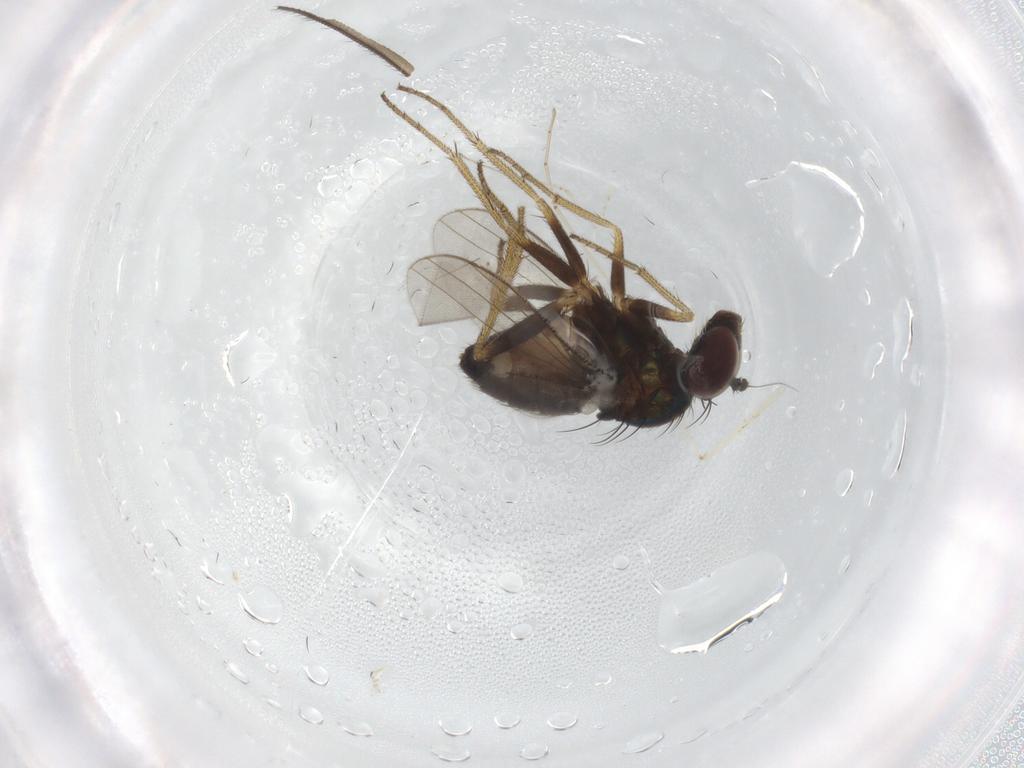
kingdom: Animalia
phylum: Arthropoda
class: Insecta
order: Diptera
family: Ditomyiidae
